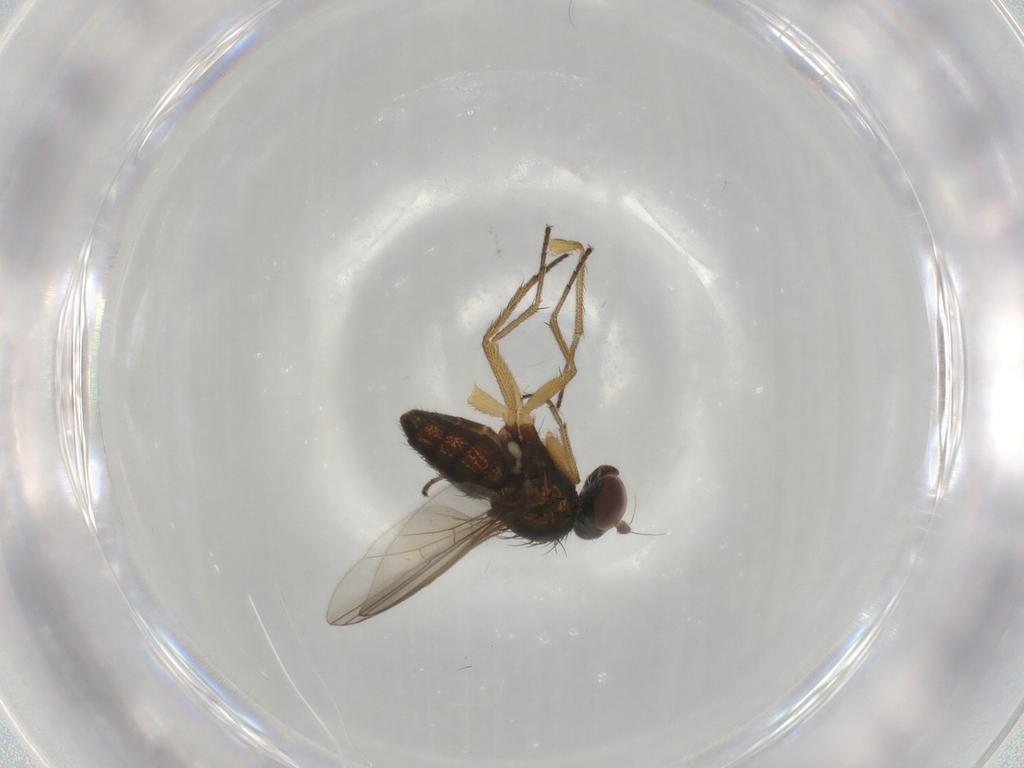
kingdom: Animalia
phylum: Arthropoda
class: Insecta
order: Diptera
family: Dolichopodidae
